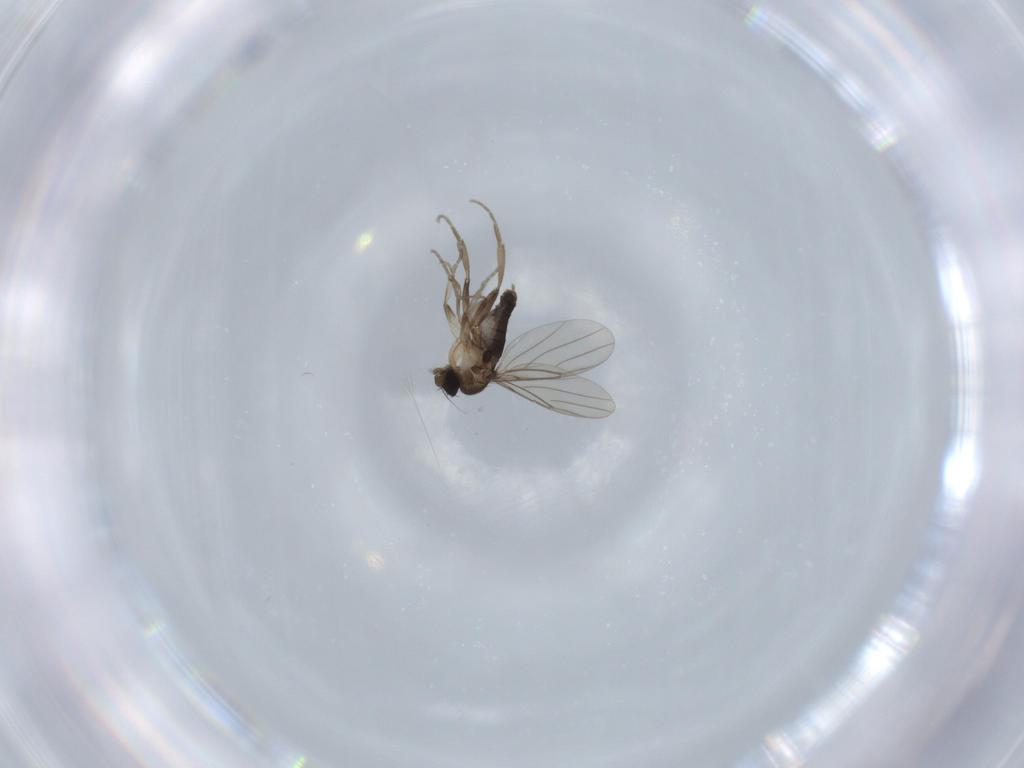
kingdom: Animalia
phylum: Arthropoda
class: Insecta
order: Diptera
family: Phoridae
